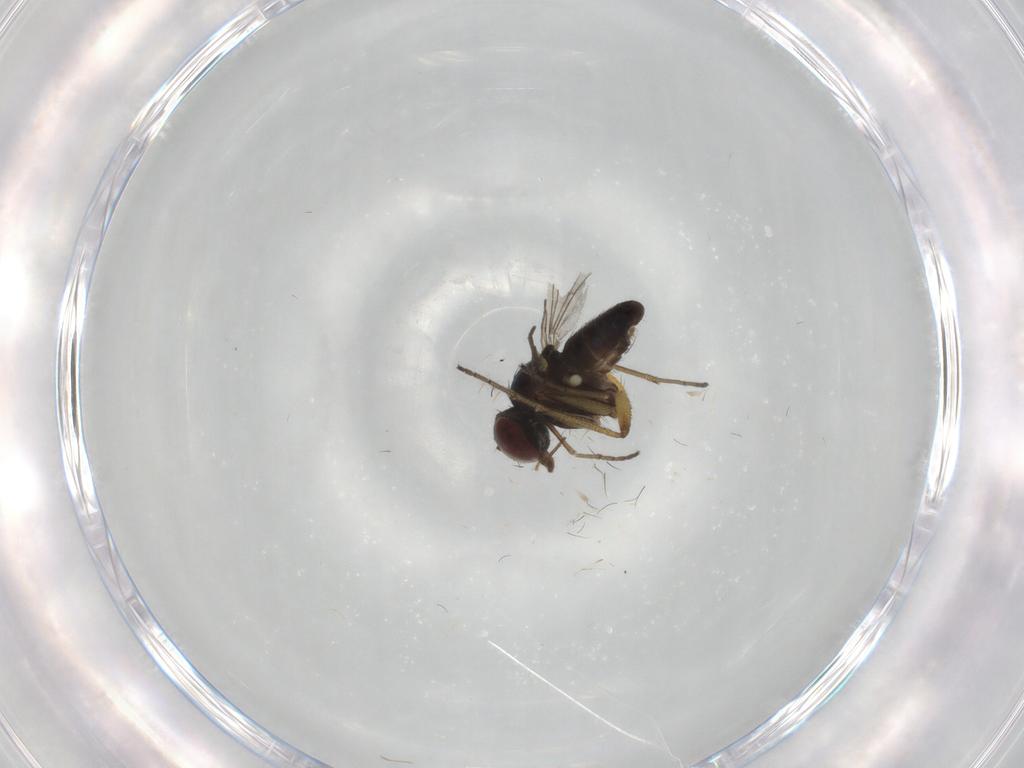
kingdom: Animalia
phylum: Arthropoda
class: Insecta
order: Diptera
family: Dolichopodidae
